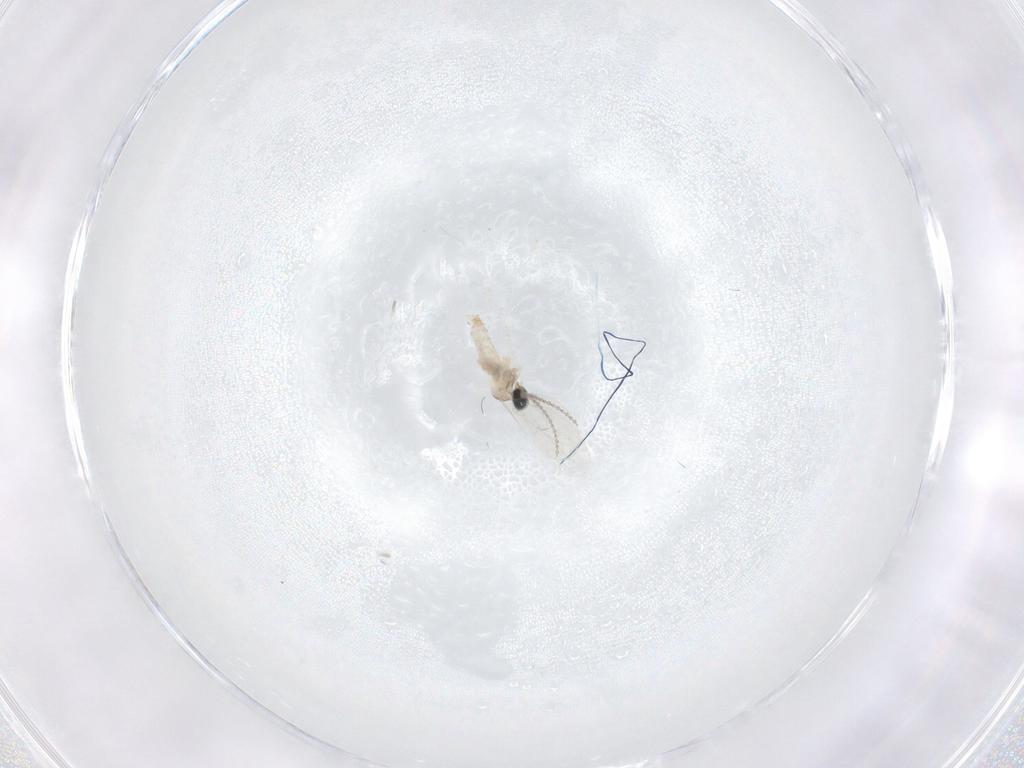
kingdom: Animalia
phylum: Arthropoda
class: Insecta
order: Diptera
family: Cecidomyiidae
